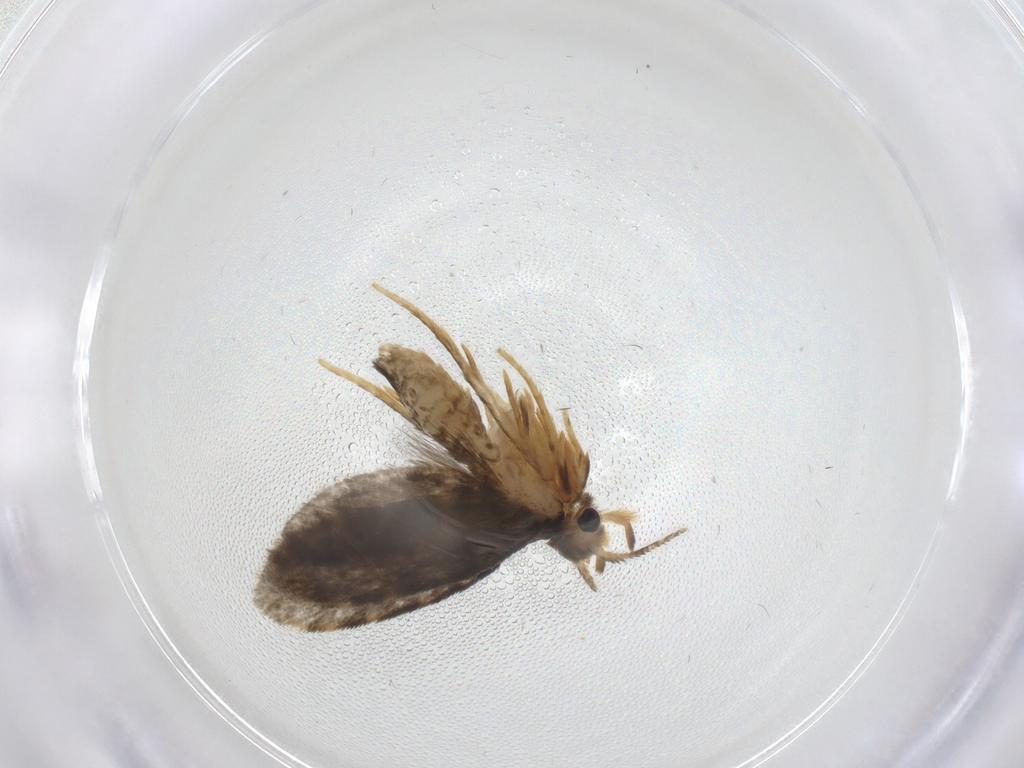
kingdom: Animalia
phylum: Arthropoda
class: Insecta
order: Lepidoptera
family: Psychidae
